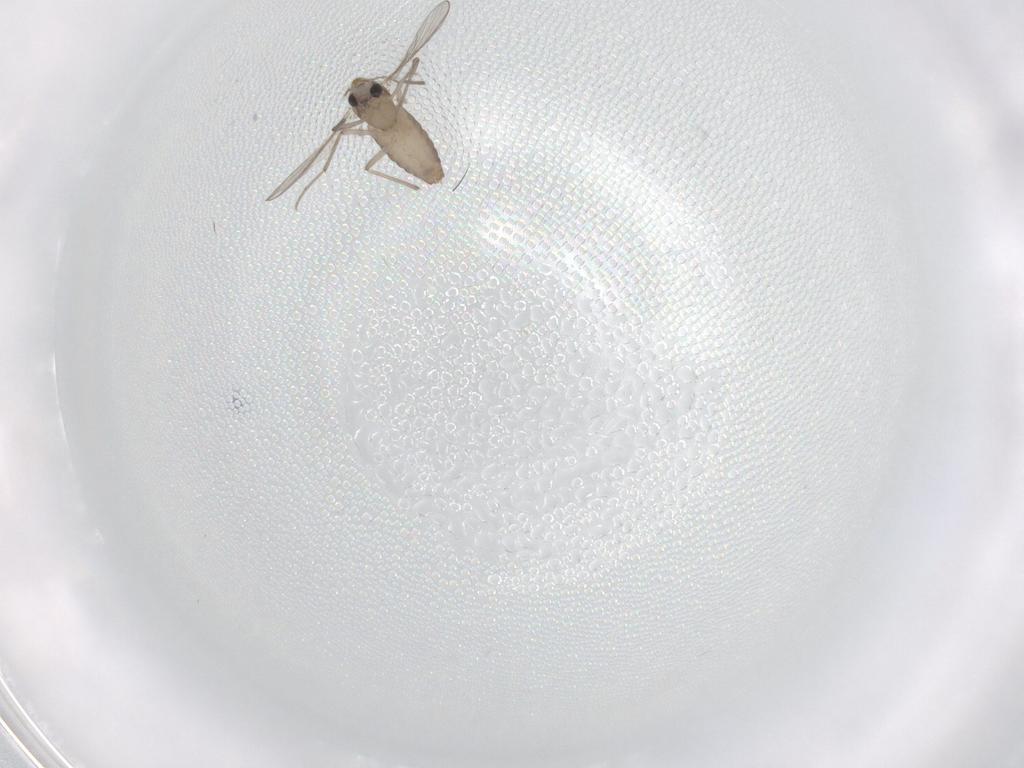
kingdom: Animalia
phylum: Arthropoda
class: Insecta
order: Diptera
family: Chironomidae
